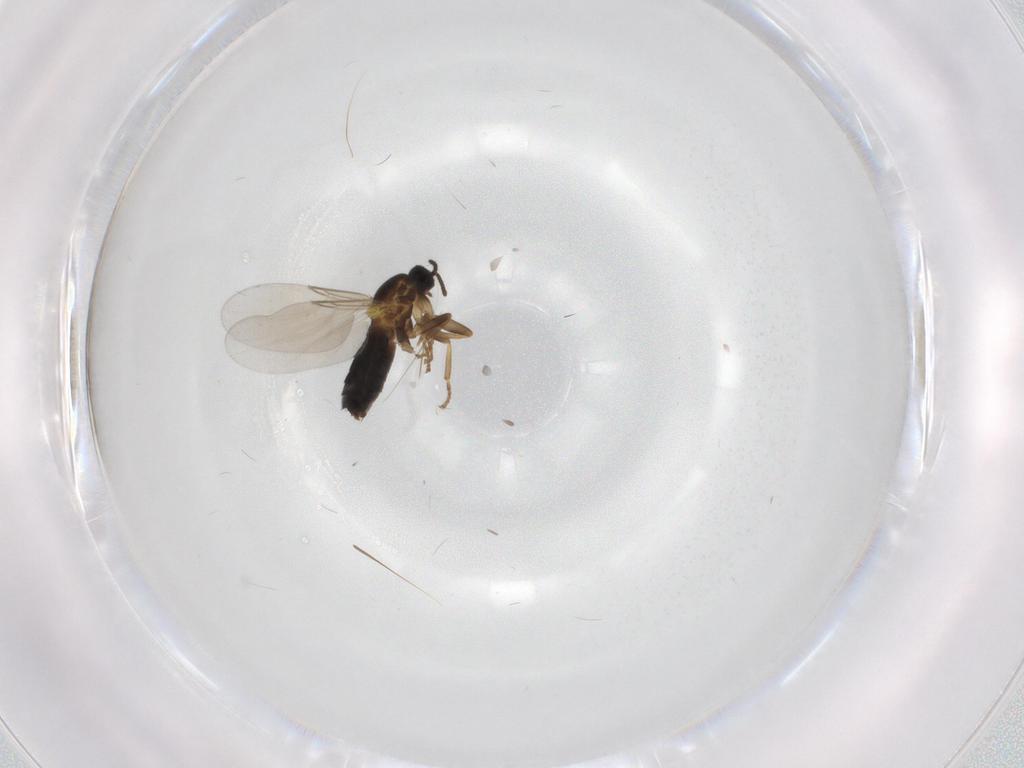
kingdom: Animalia
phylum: Arthropoda
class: Insecta
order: Diptera
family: Scatopsidae
